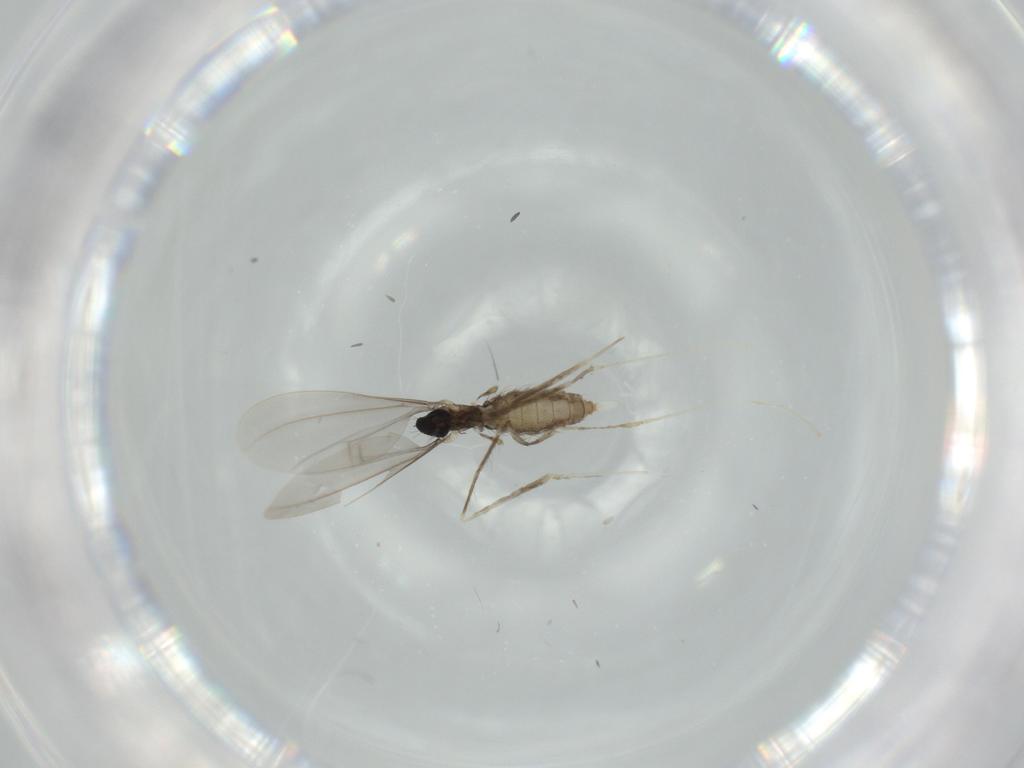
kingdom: Animalia
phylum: Arthropoda
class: Insecta
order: Diptera
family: Cecidomyiidae
